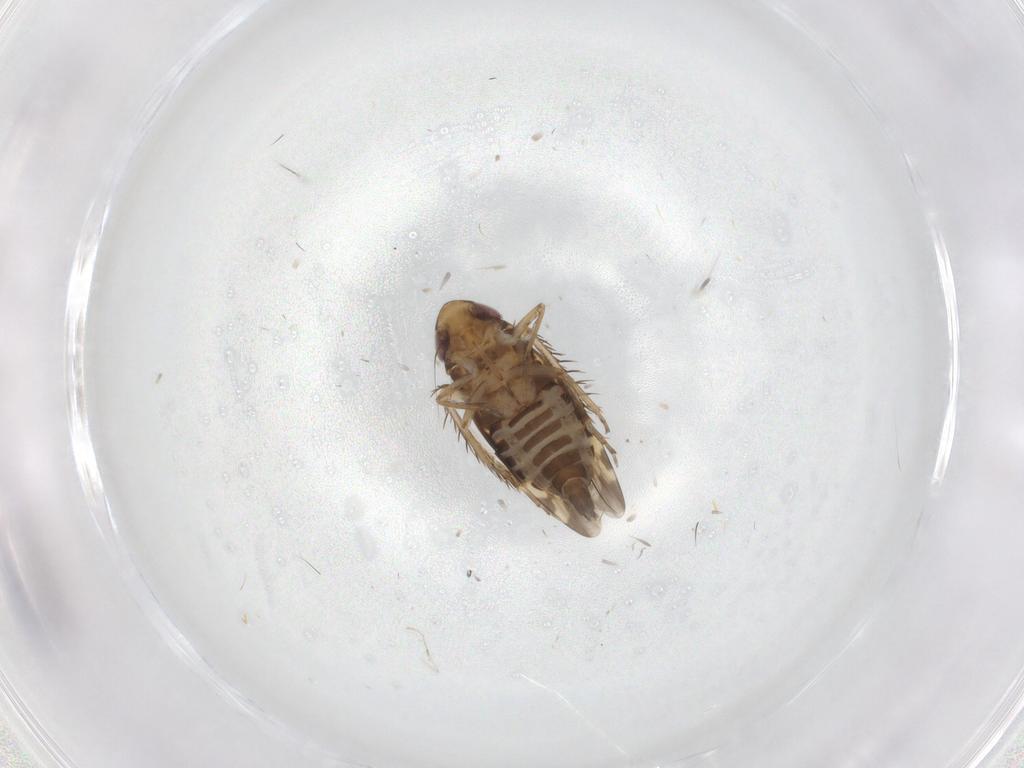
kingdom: Animalia
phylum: Arthropoda
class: Insecta
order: Hemiptera
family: Cicadellidae
